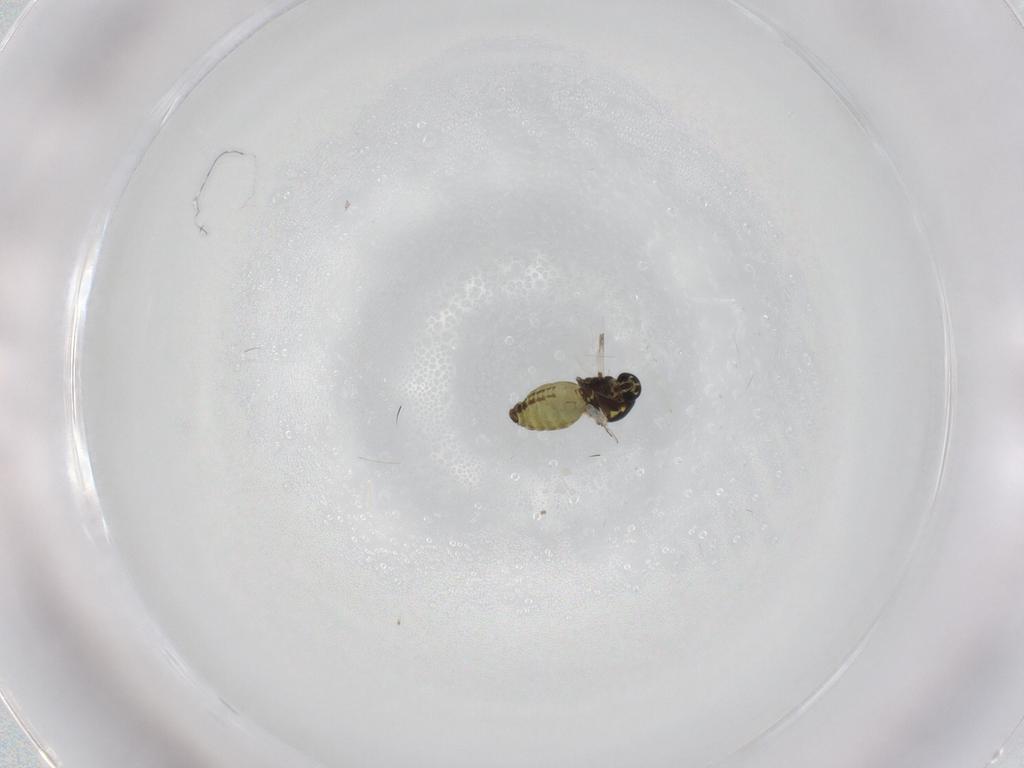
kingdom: Animalia
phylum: Arthropoda
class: Insecta
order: Diptera
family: Ceratopogonidae
